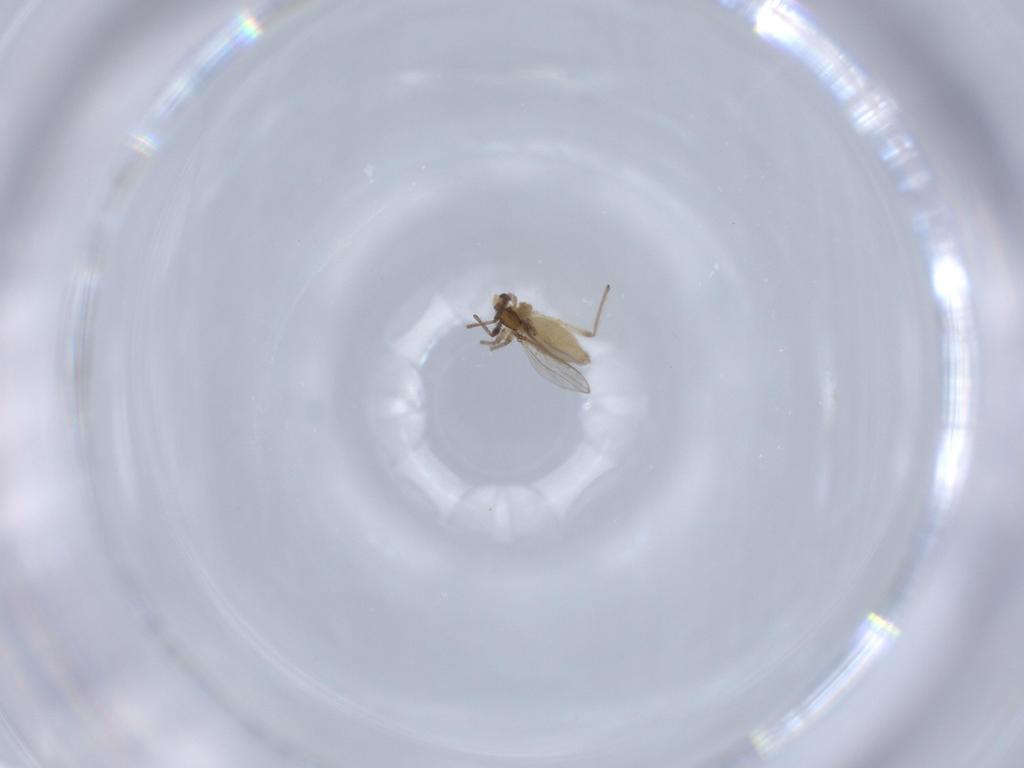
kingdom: Animalia
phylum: Arthropoda
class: Insecta
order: Diptera
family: Chironomidae
